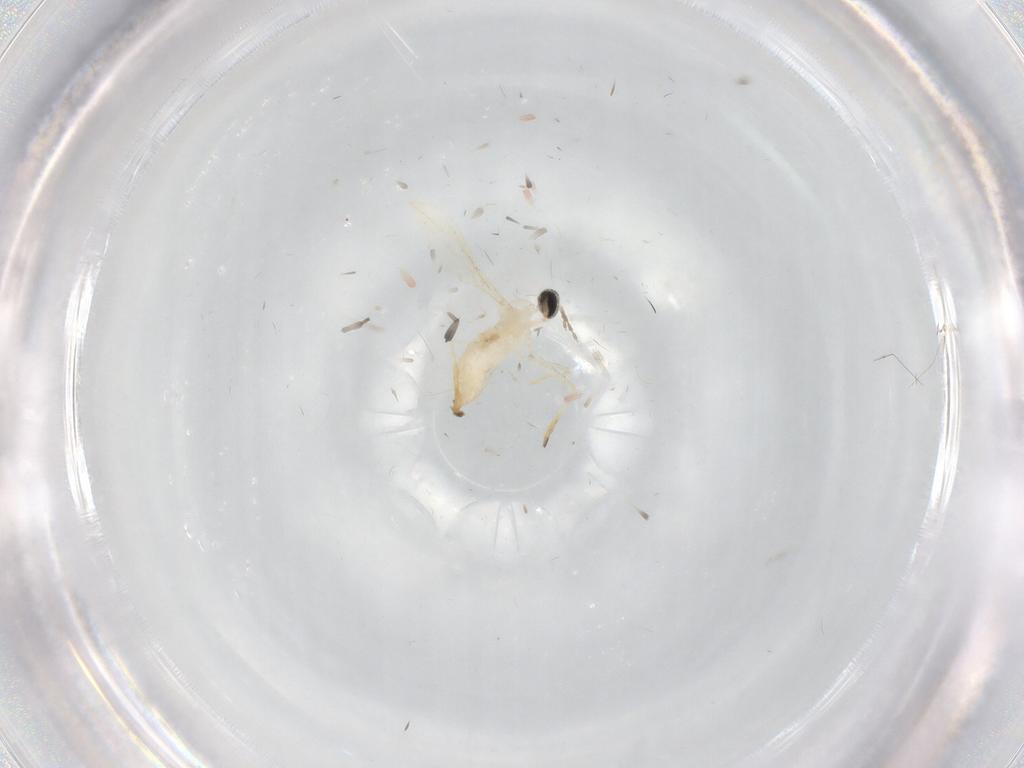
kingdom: Animalia
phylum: Arthropoda
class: Insecta
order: Diptera
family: Cecidomyiidae
